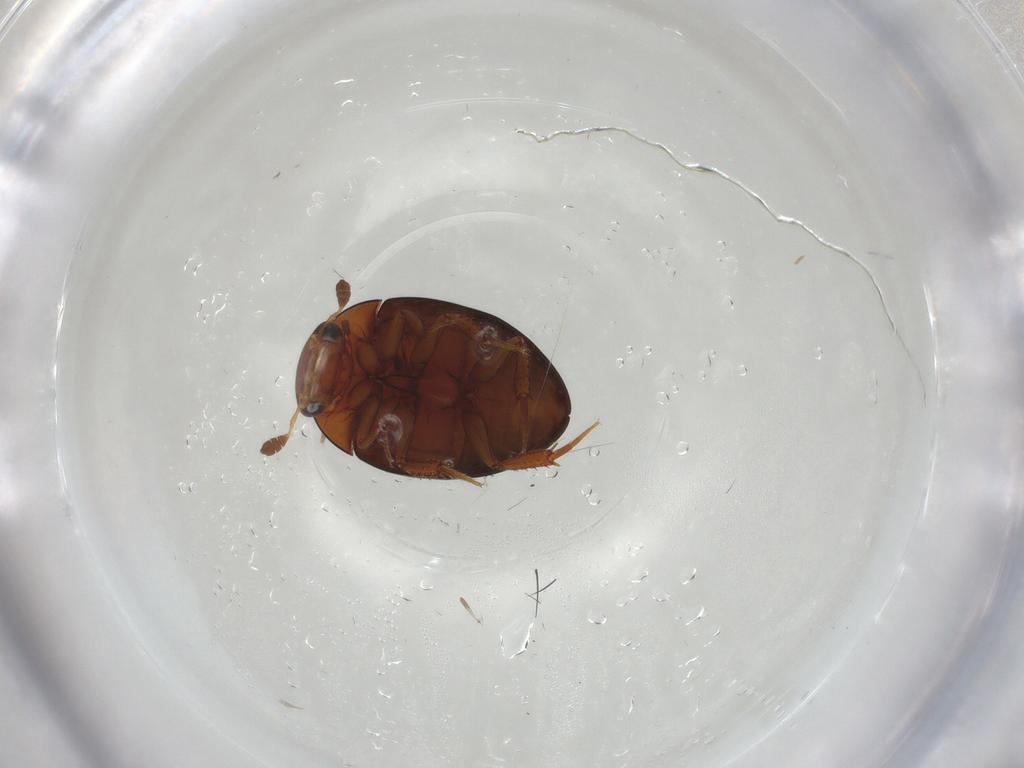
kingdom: Animalia
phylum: Arthropoda
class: Insecta
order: Coleoptera
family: Hydrophilidae
